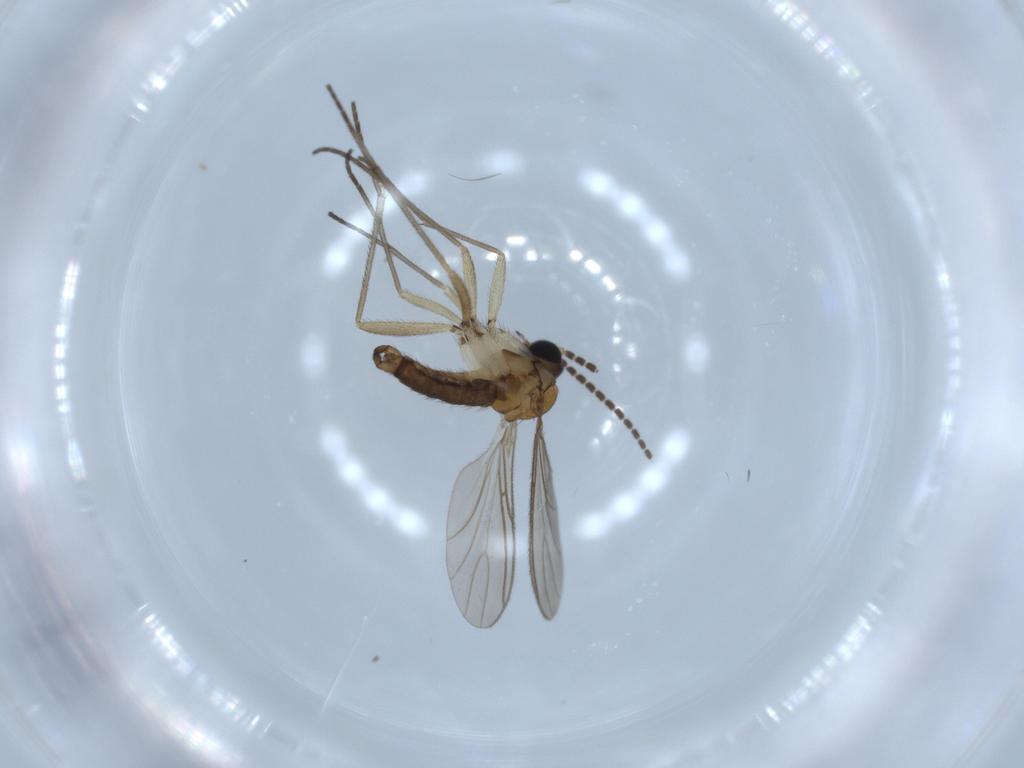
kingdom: Animalia
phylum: Arthropoda
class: Insecta
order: Diptera
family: Sciaridae
